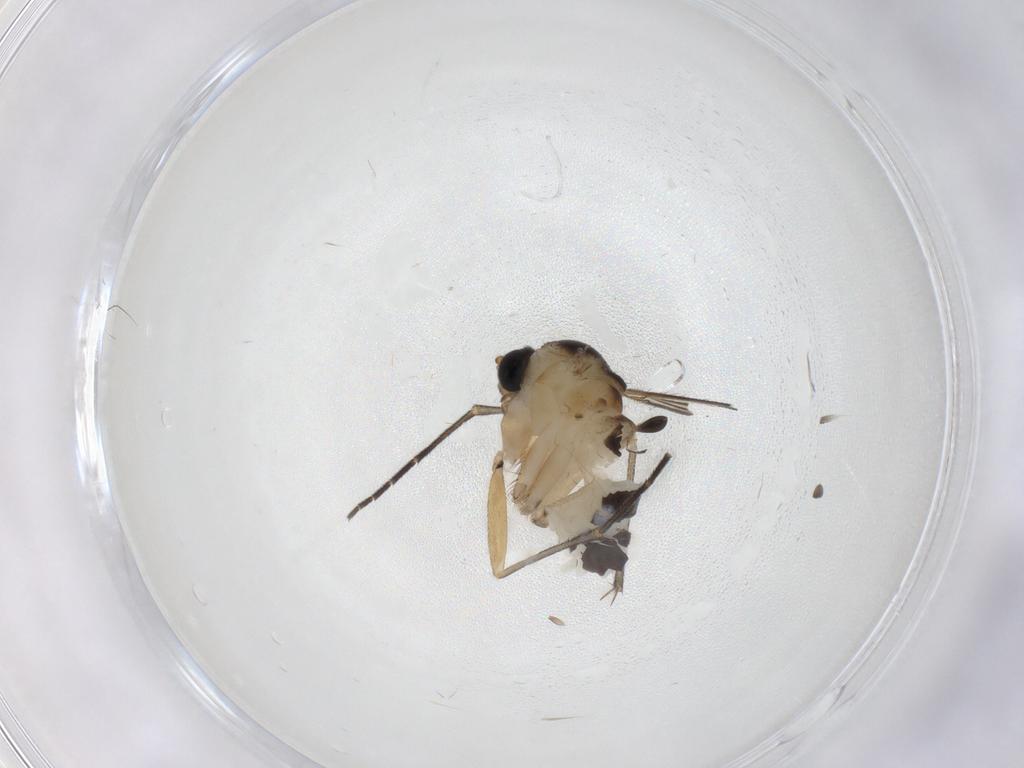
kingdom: Animalia
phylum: Arthropoda
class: Insecta
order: Diptera
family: Sciaridae
